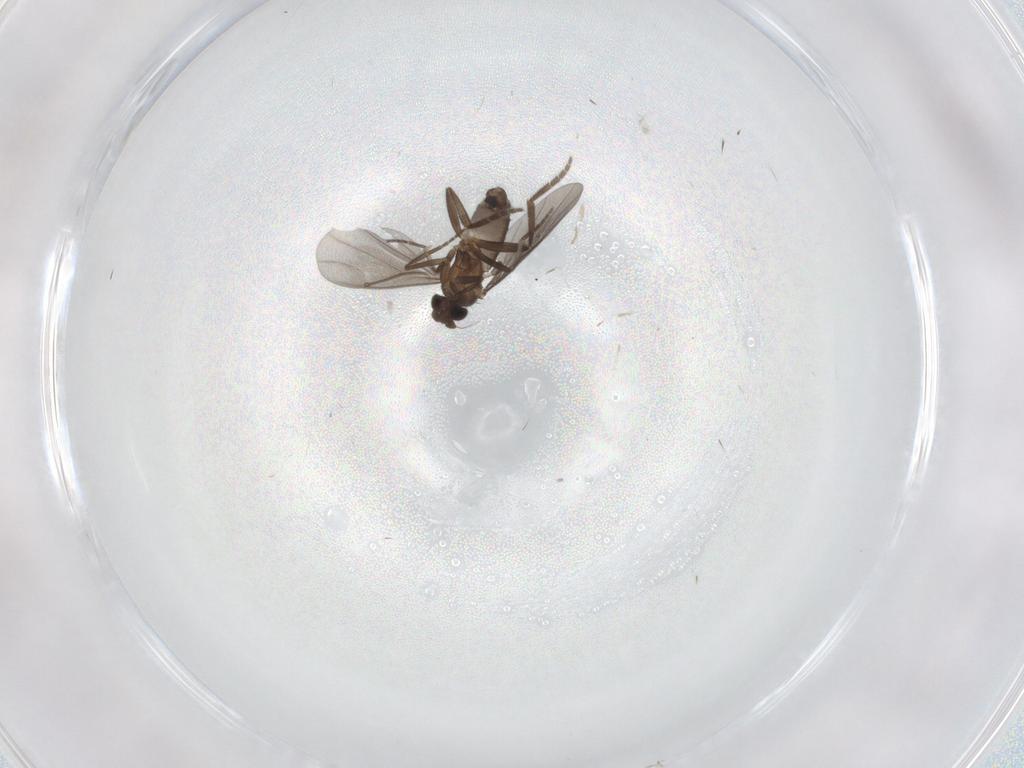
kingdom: Animalia
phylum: Arthropoda
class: Insecta
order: Diptera
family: Cecidomyiidae
